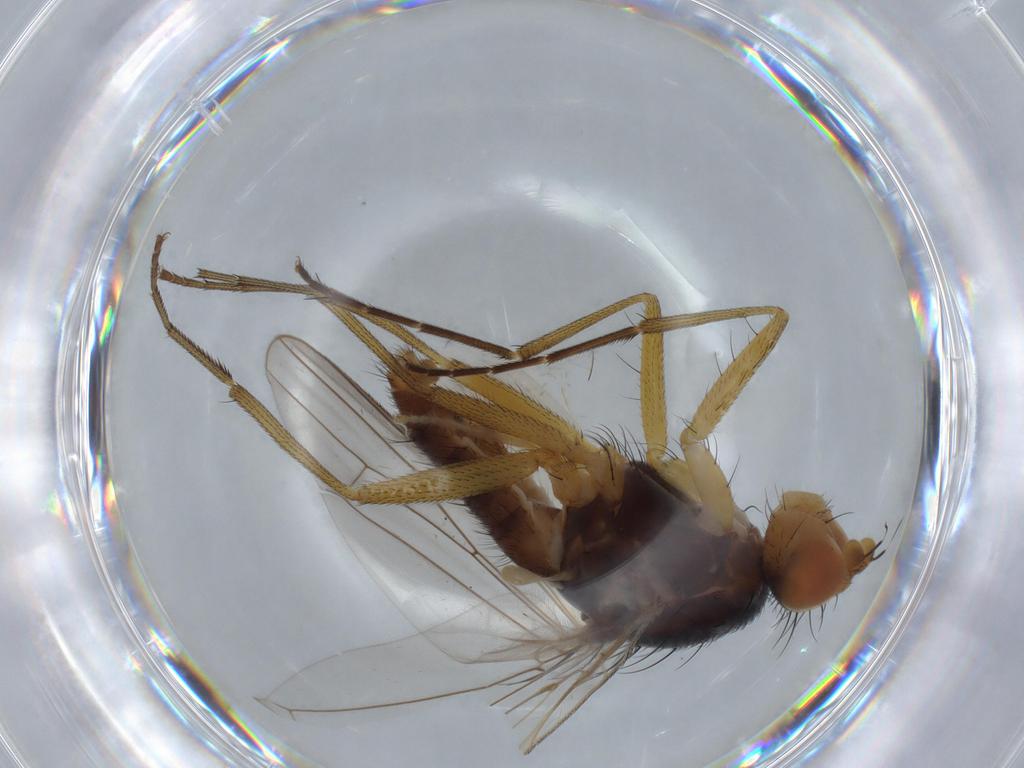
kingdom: Animalia
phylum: Arthropoda
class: Insecta
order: Diptera
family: Heleomyzidae
